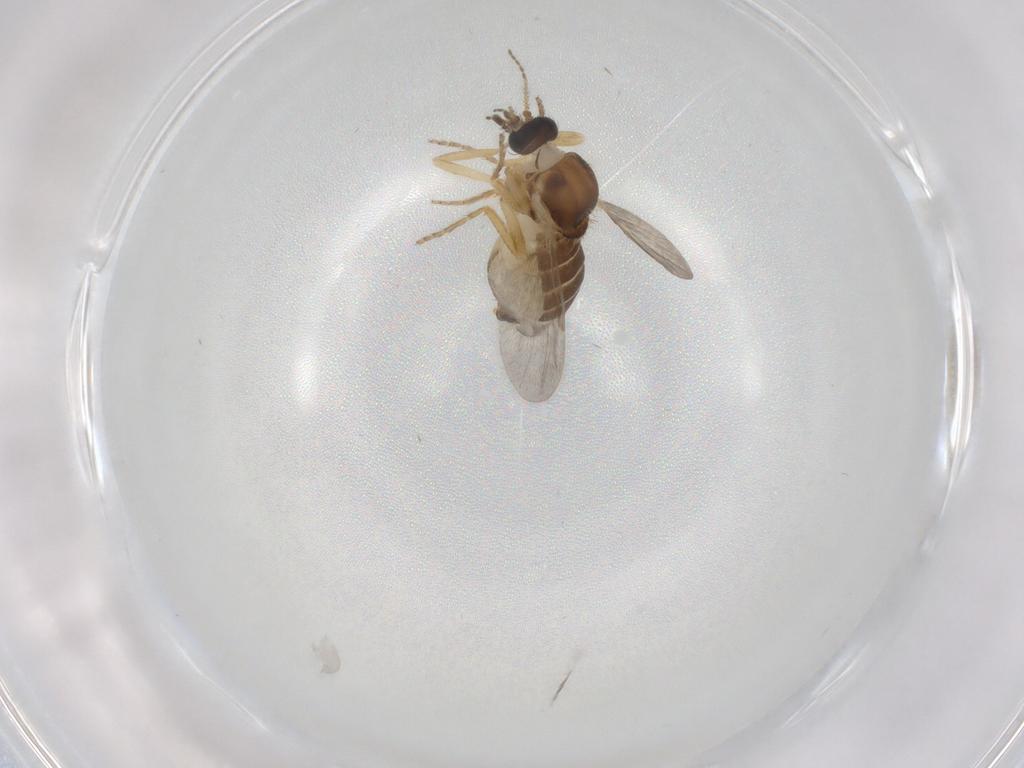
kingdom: Animalia
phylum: Arthropoda
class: Insecta
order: Diptera
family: Ceratopogonidae
